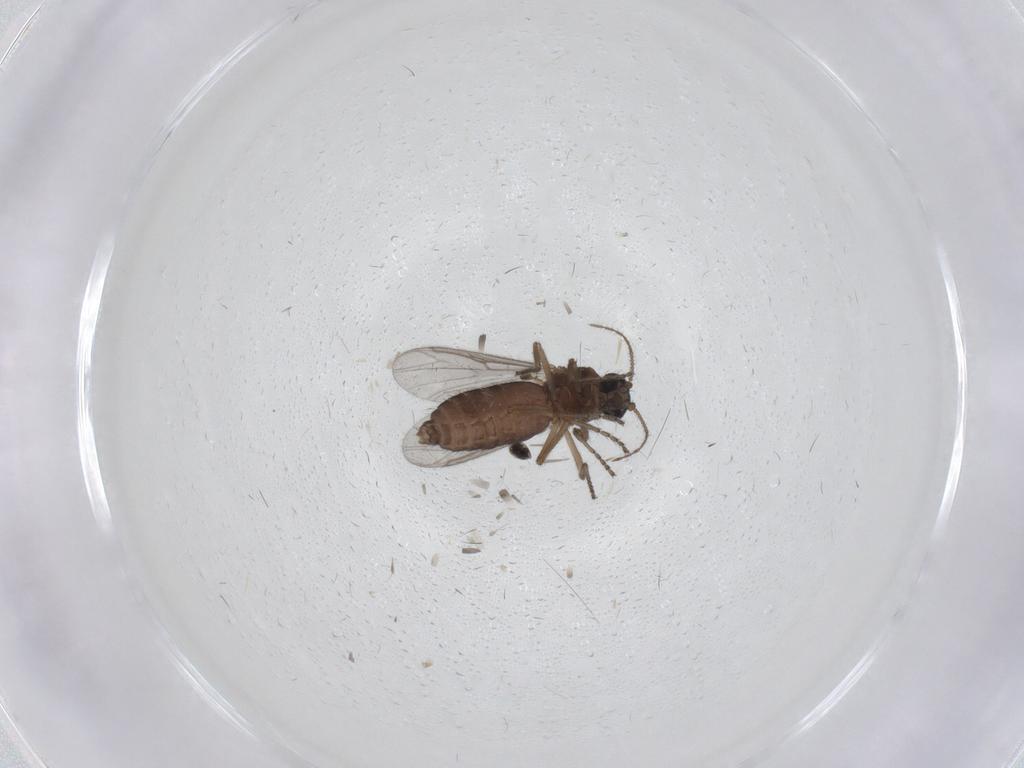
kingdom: Animalia
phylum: Arthropoda
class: Insecta
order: Diptera
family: Ceratopogonidae
